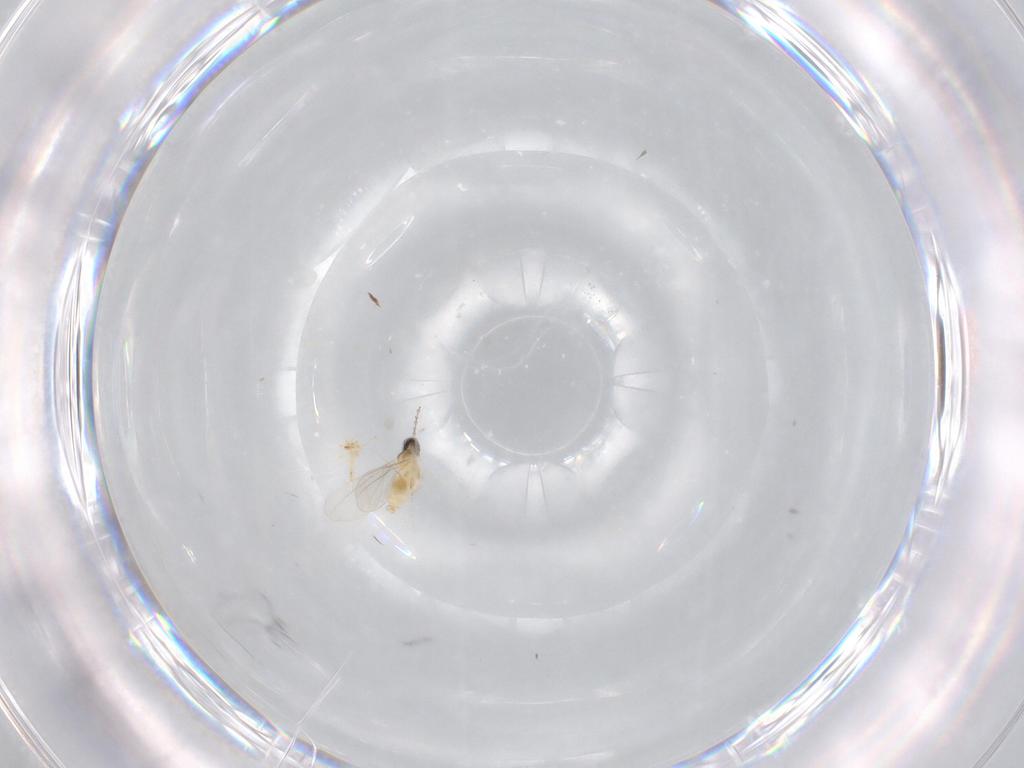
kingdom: Animalia
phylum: Arthropoda
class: Insecta
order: Diptera
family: Cecidomyiidae
